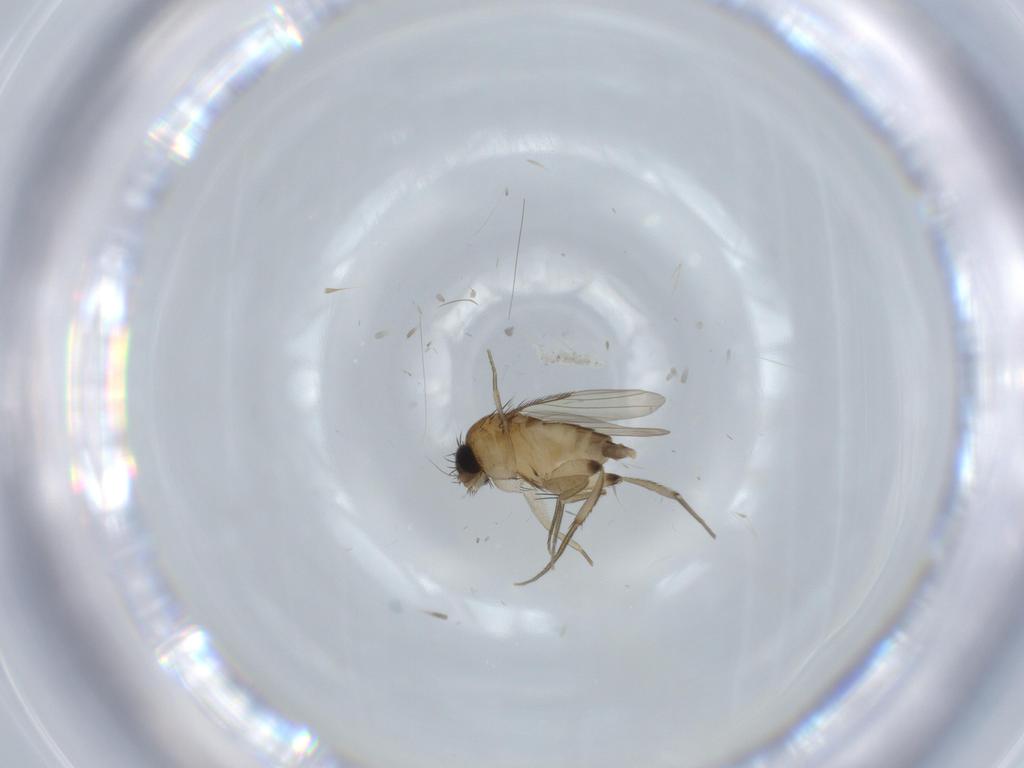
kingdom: Animalia
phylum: Arthropoda
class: Insecta
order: Diptera
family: Phoridae
